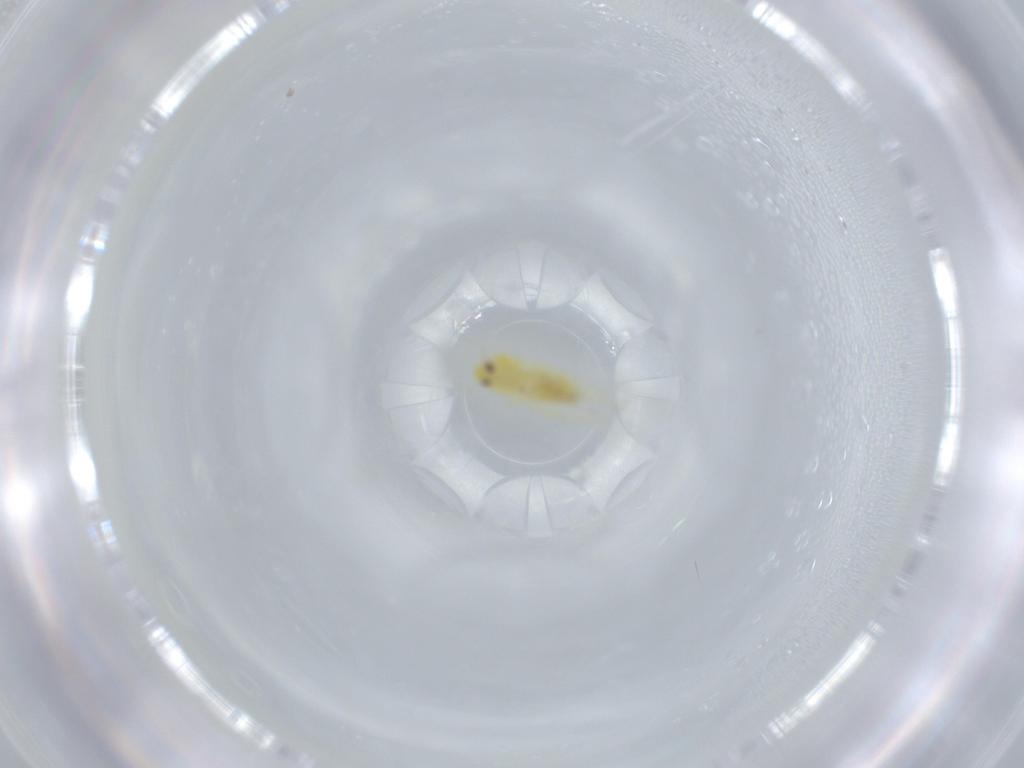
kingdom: Animalia
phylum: Arthropoda
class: Insecta
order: Hemiptera
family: Aleyrodidae
